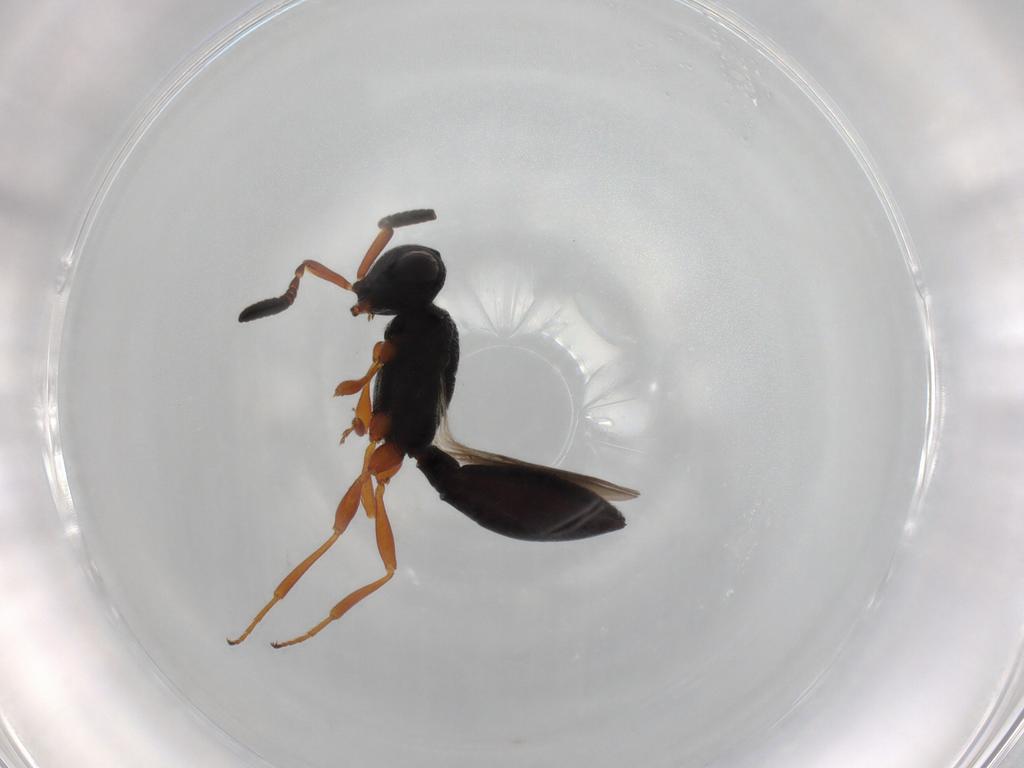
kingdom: Animalia
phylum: Arthropoda
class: Insecta
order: Hymenoptera
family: Scelionidae
